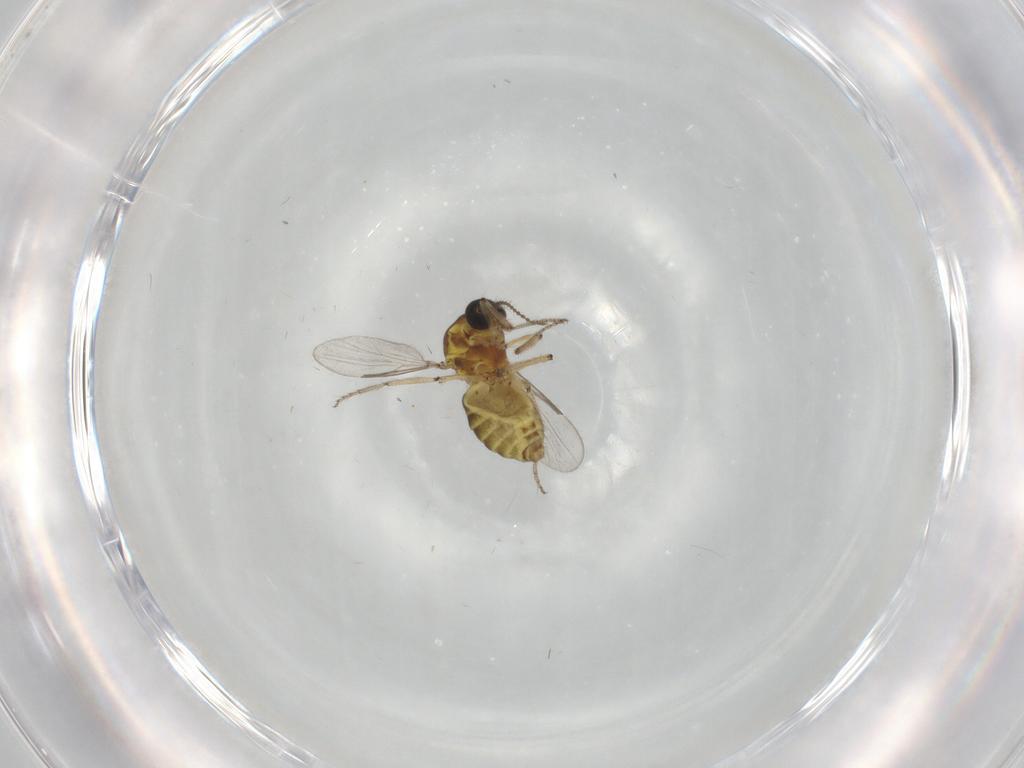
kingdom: Animalia
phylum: Arthropoda
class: Insecta
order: Diptera
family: Ceratopogonidae
